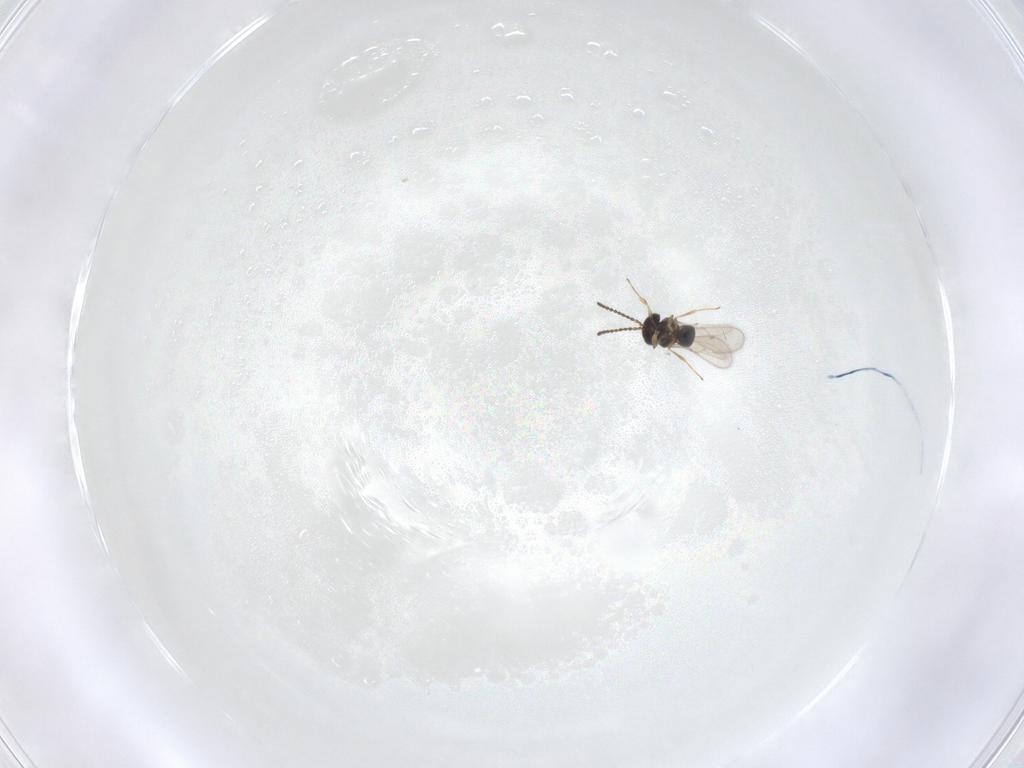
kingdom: Animalia
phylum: Arthropoda
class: Insecta
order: Hymenoptera
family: Scelionidae
